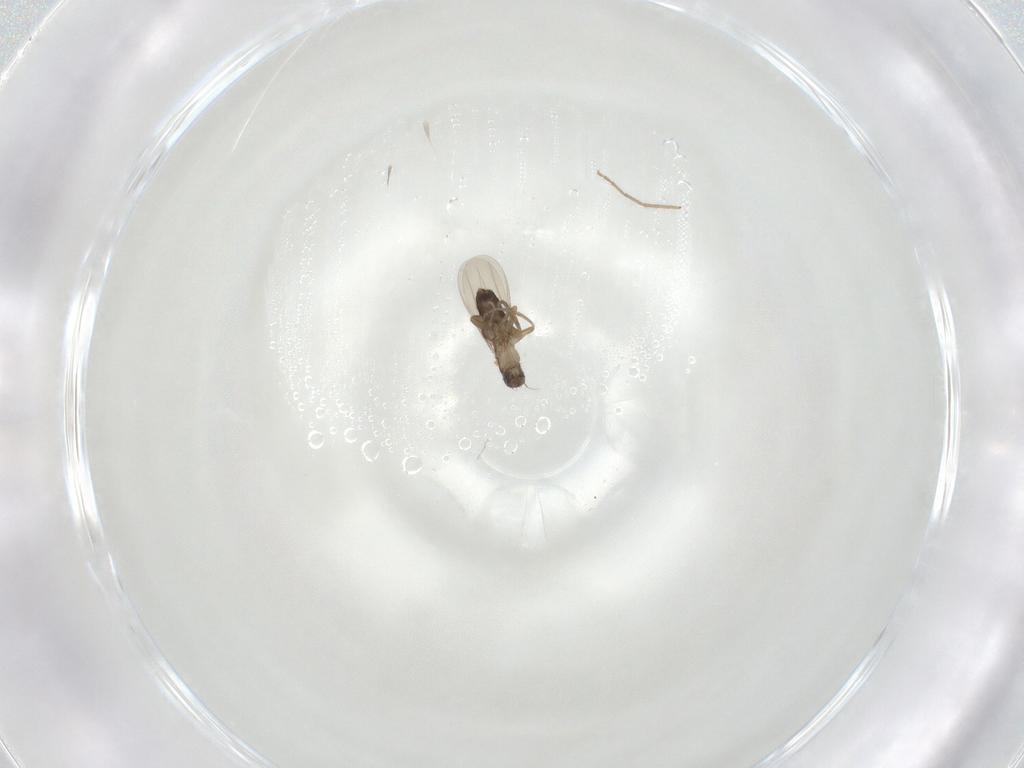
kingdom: Animalia
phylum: Arthropoda
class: Insecta
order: Diptera
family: Phoridae
